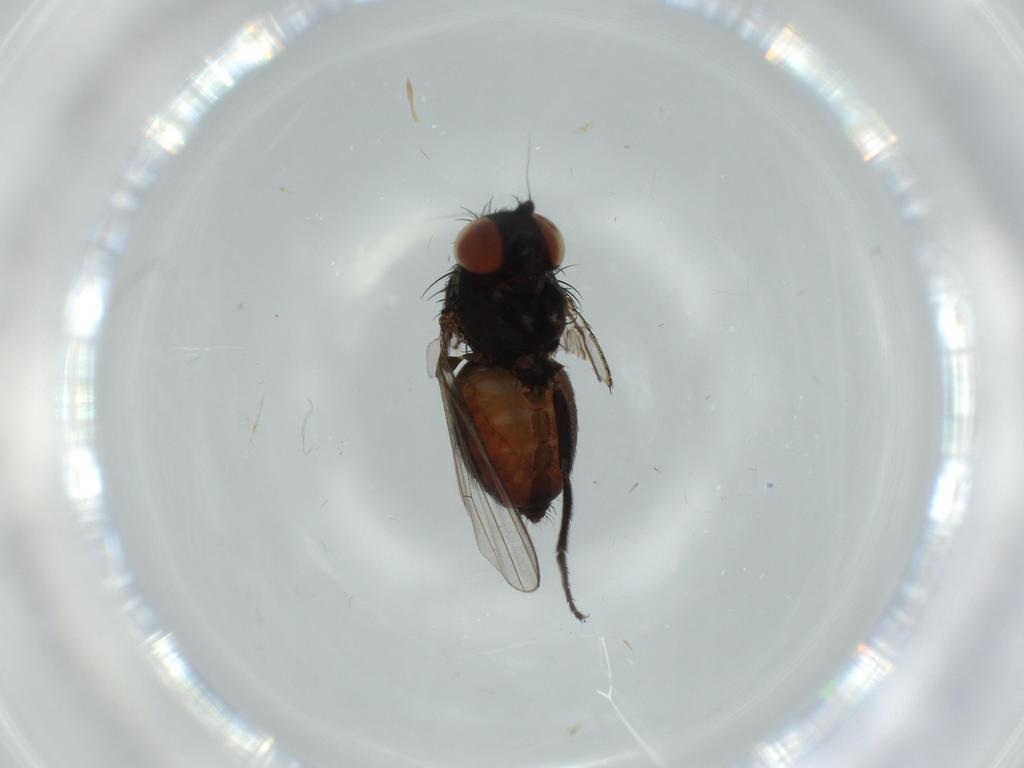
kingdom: Animalia
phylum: Arthropoda
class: Insecta
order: Diptera
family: Milichiidae
